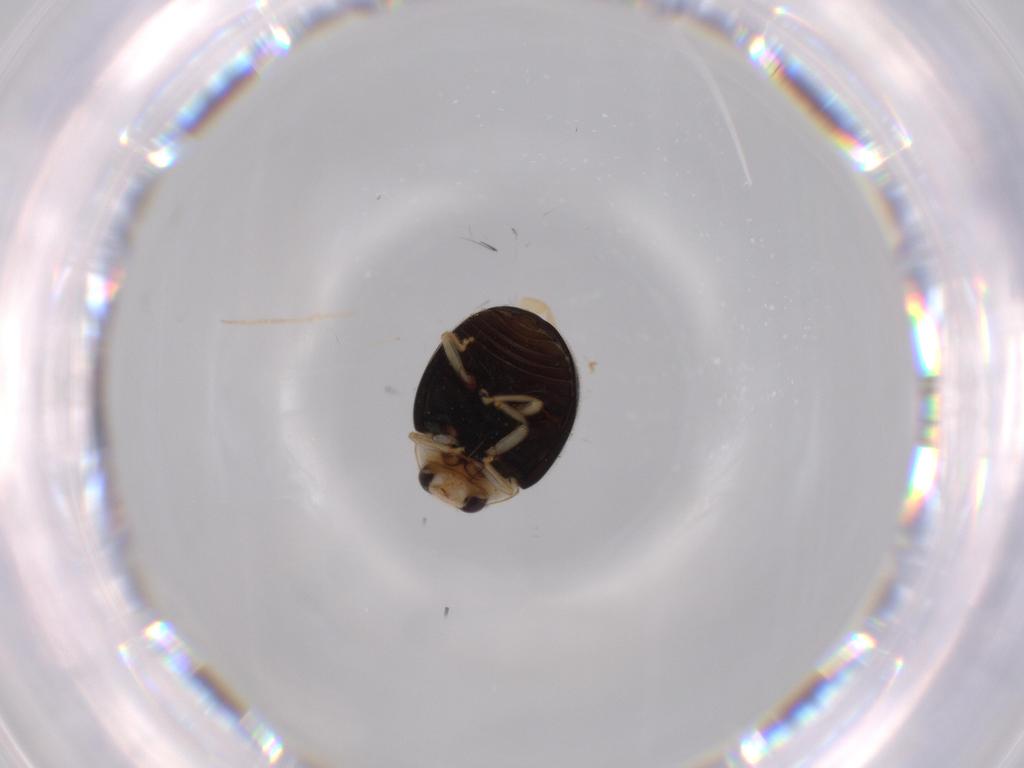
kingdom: Animalia
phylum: Arthropoda
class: Insecta
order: Coleoptera
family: Coccinellidae
